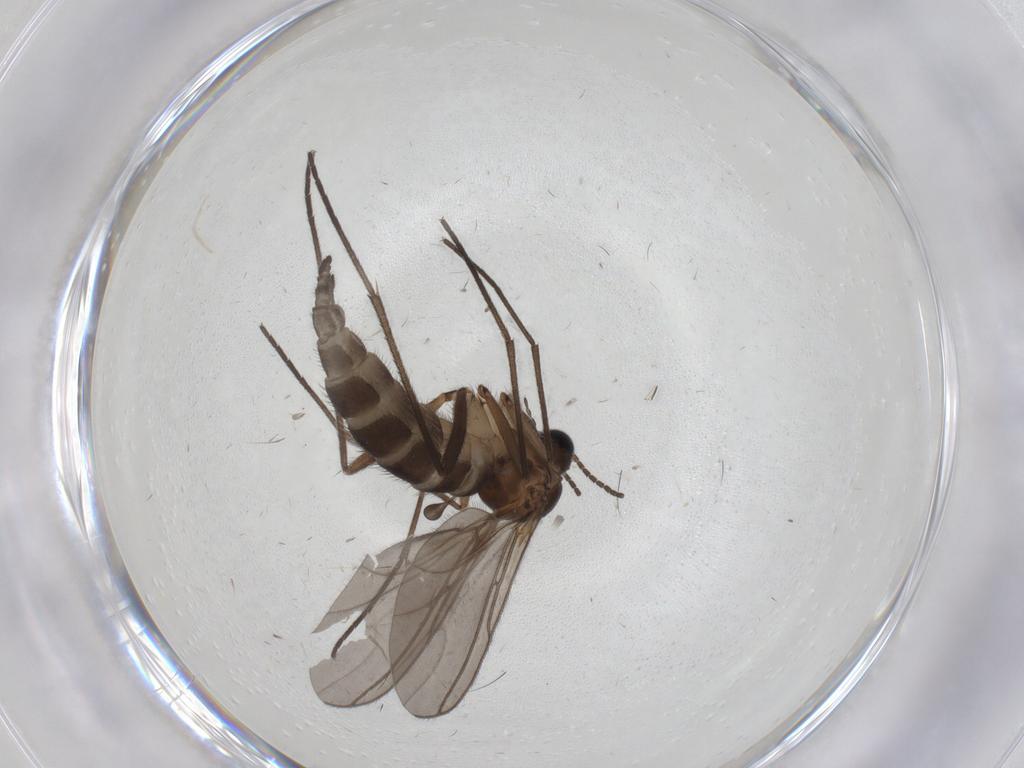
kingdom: Animalia
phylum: Arthropoda
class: Insecta
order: Diptera
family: Sciaridae
